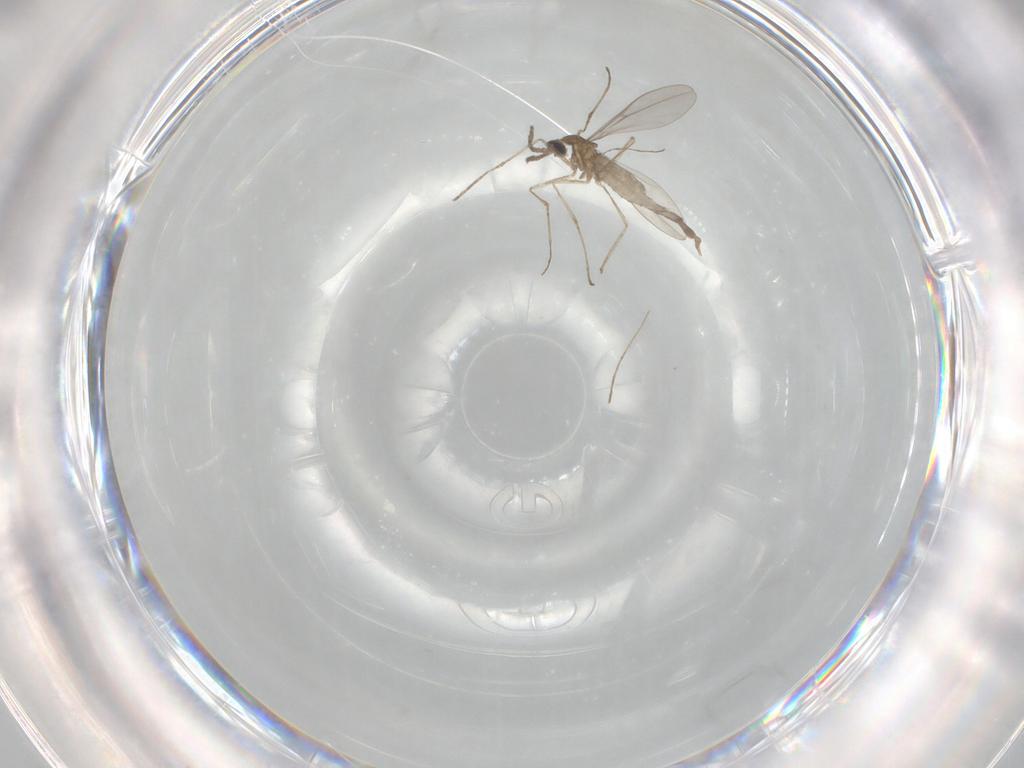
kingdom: Animalia
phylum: Arthropoda
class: Insecta
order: Diptera
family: Cecidomyiidae
